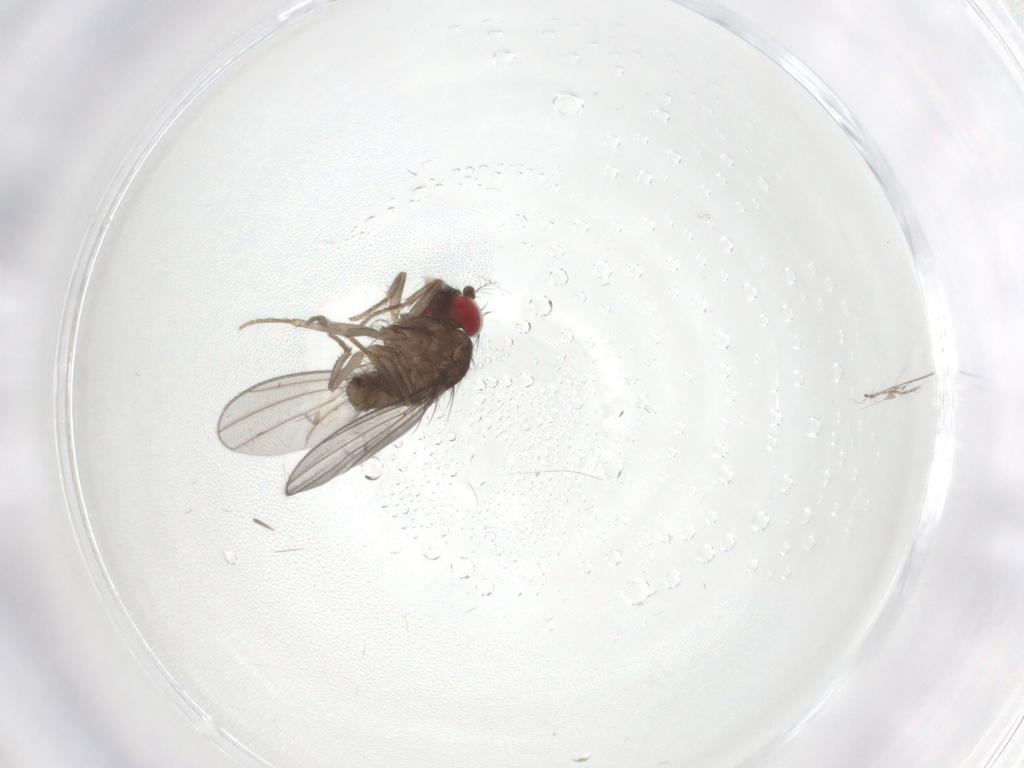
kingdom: Animalia
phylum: Arthropoda
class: Insecta
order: Diptera
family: Drosophilidae
